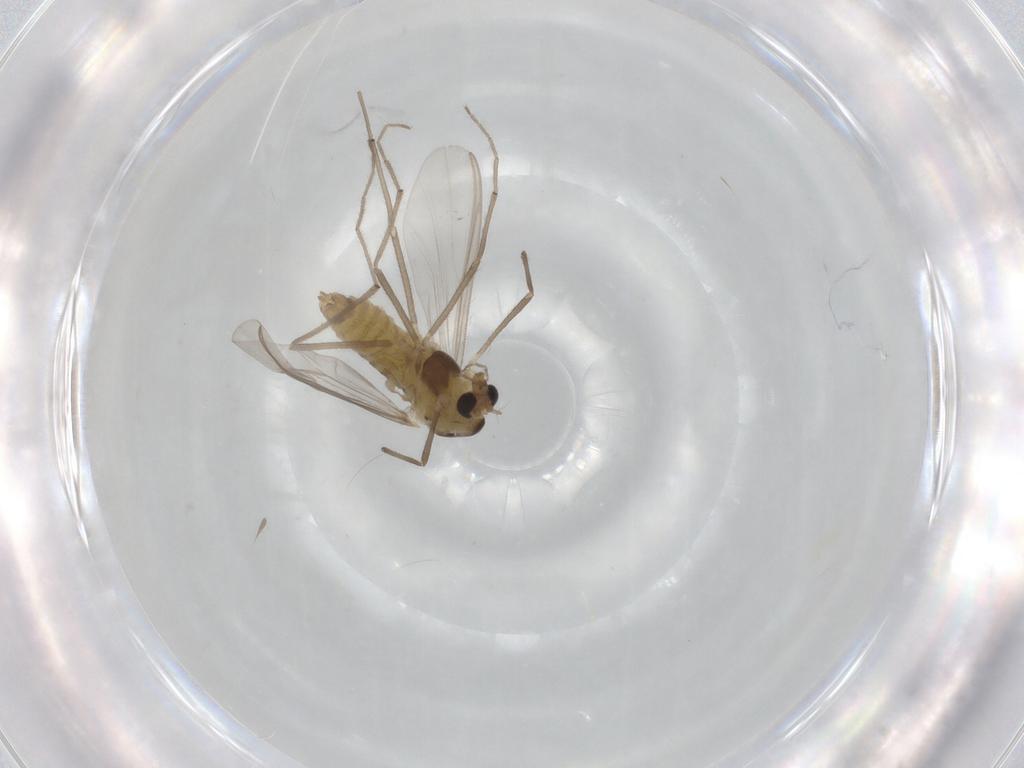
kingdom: Animalia
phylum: Arthropoda
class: Insecta
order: Diptera
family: Chironomidae
